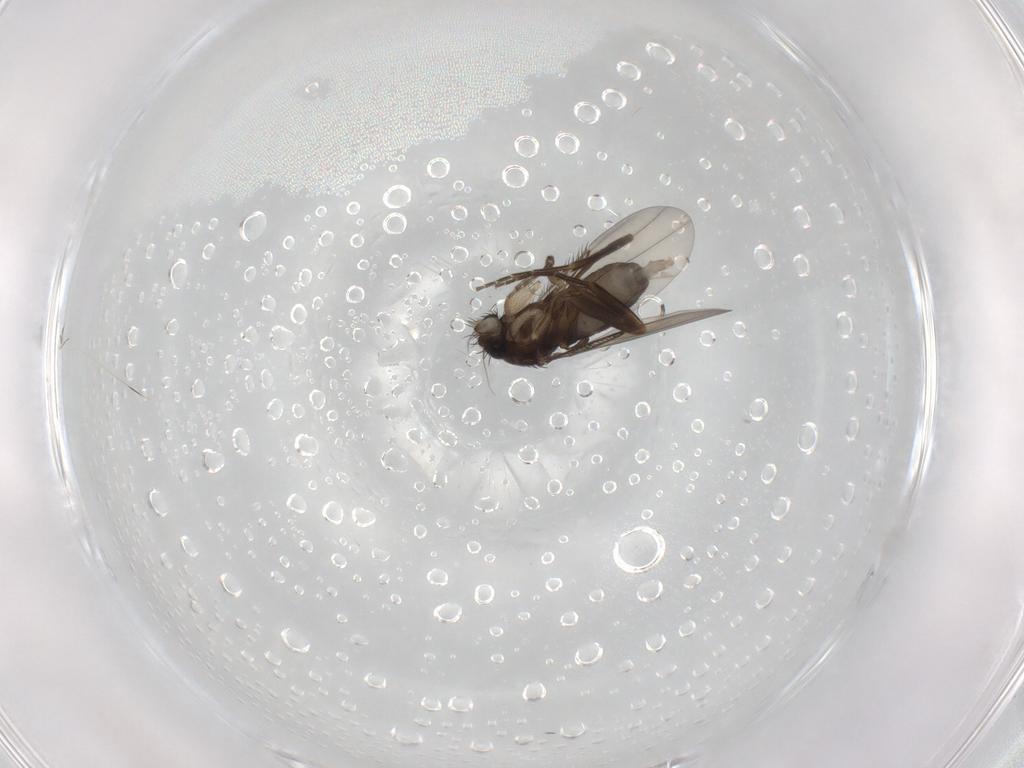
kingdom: Animalia
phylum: Arthropoda
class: Insecta
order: Diptera
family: Phoridae
